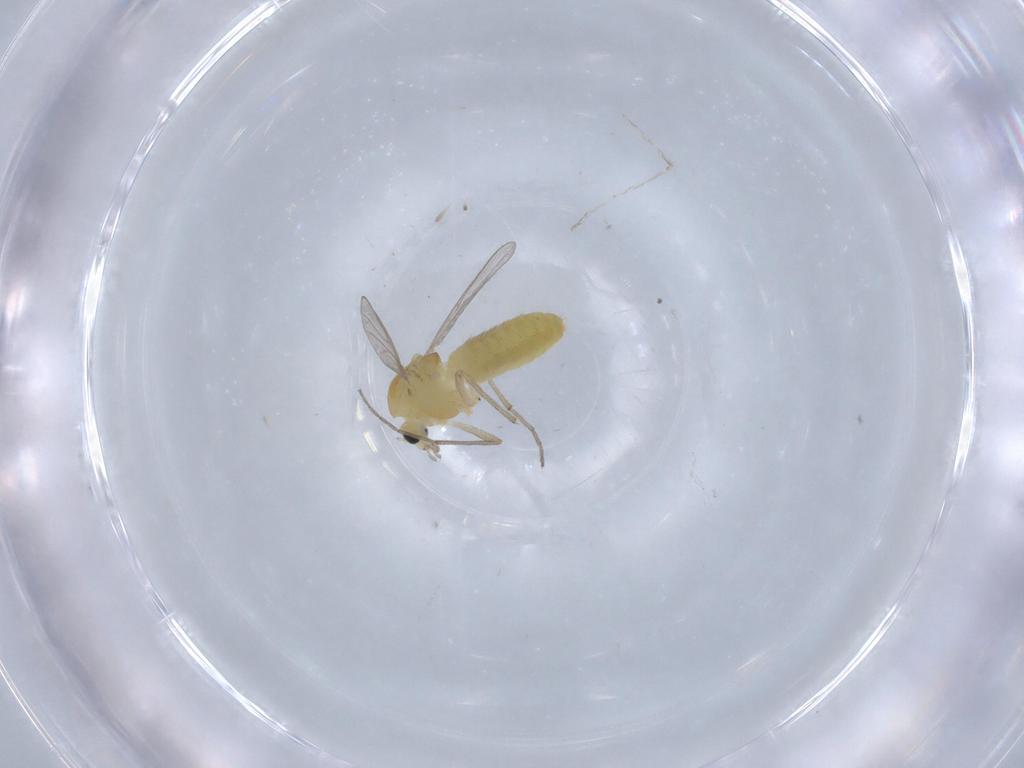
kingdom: Animalia
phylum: Arthropoda
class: Insecta
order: Diptera
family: Chironomidae
